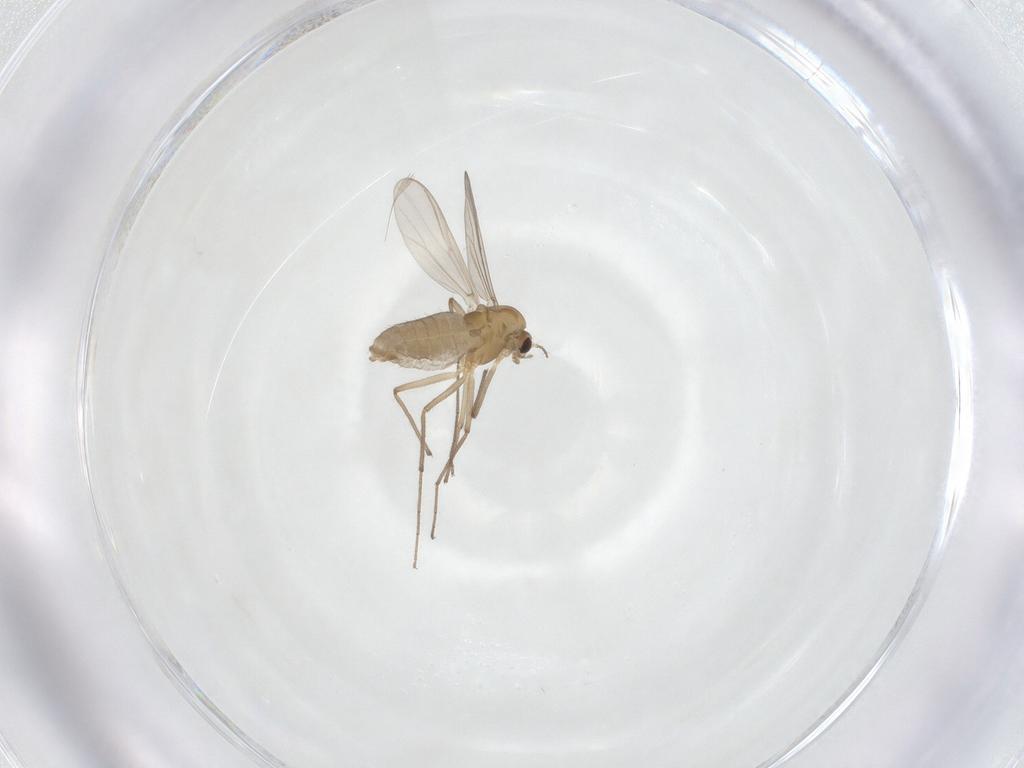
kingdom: Animalia
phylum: Arthropoda
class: Insecta
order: Diptera
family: Chironomidae
